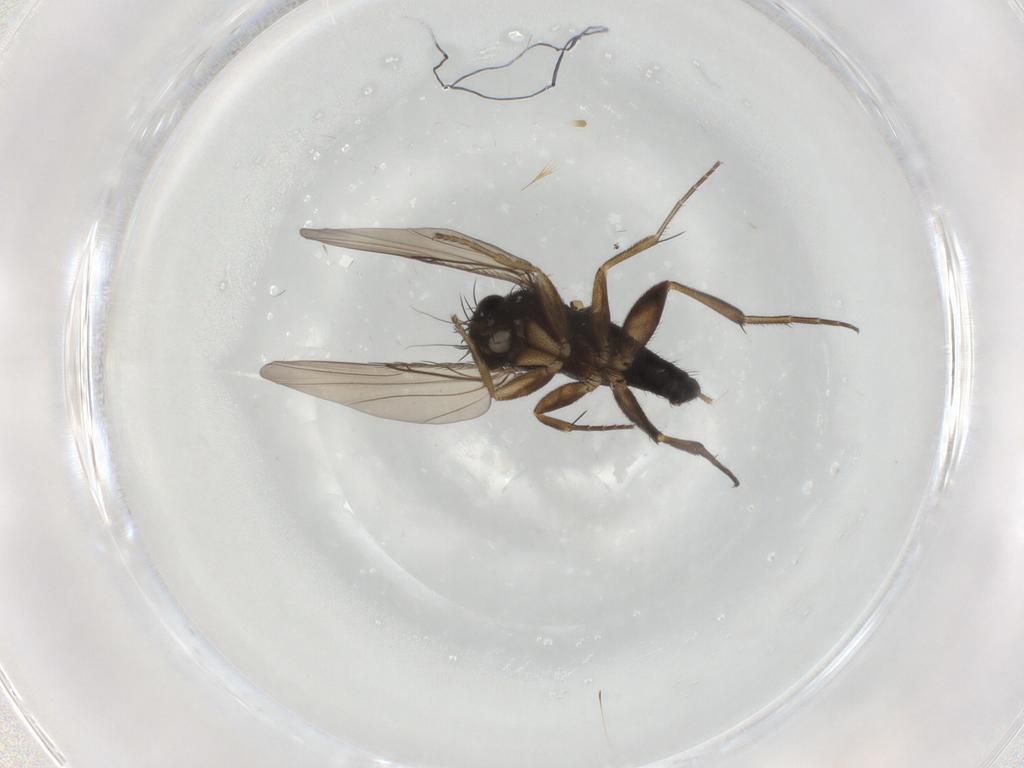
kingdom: Animalia
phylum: Arthropoda
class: Insecta
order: Diptera
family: Phoridae
